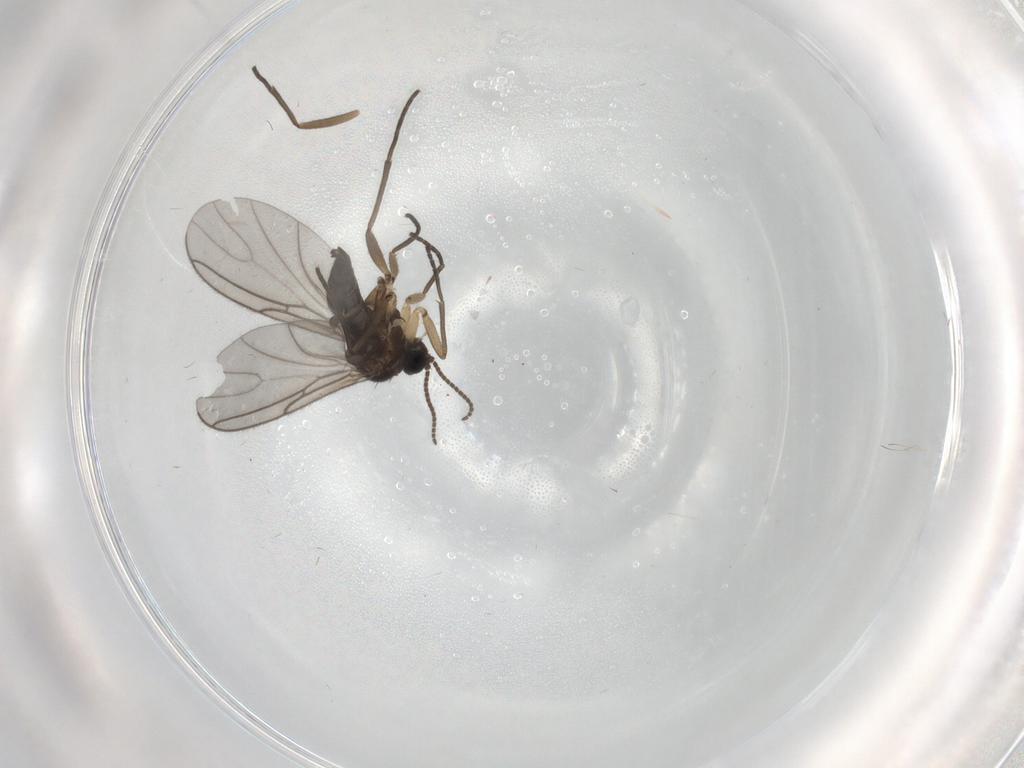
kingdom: Animalia
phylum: Arthropoda
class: Insecta
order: Diptera
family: Sciaridae
